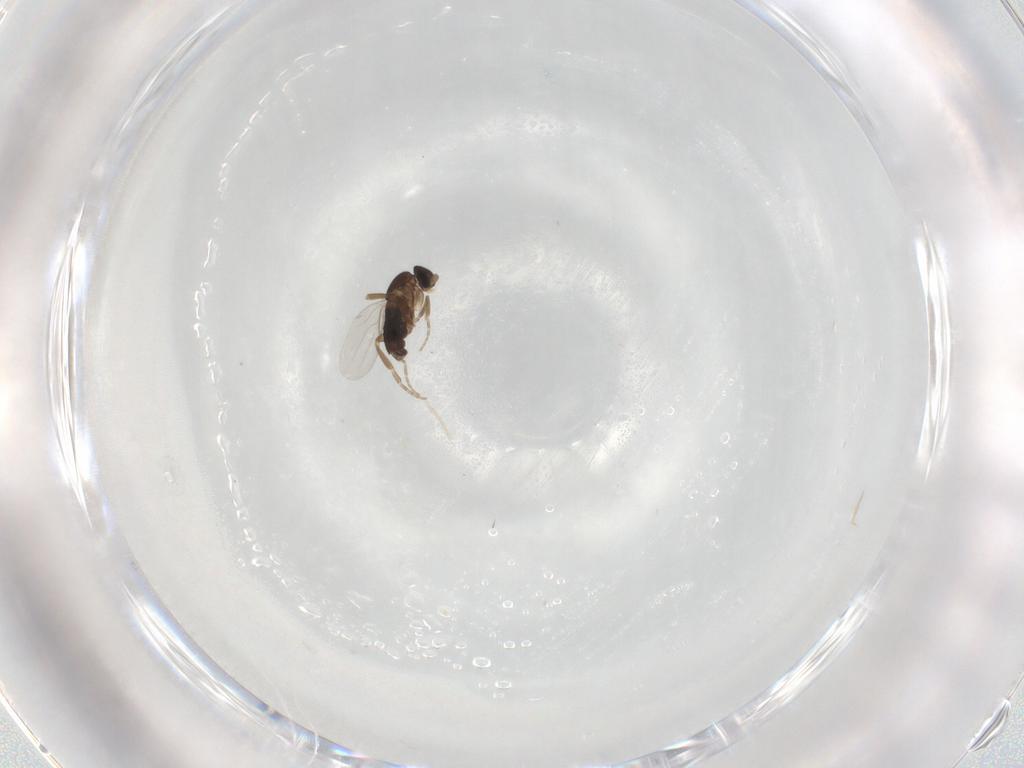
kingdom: Animalia
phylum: Arthropoda
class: Insecta
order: Diptera
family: Phoridae
